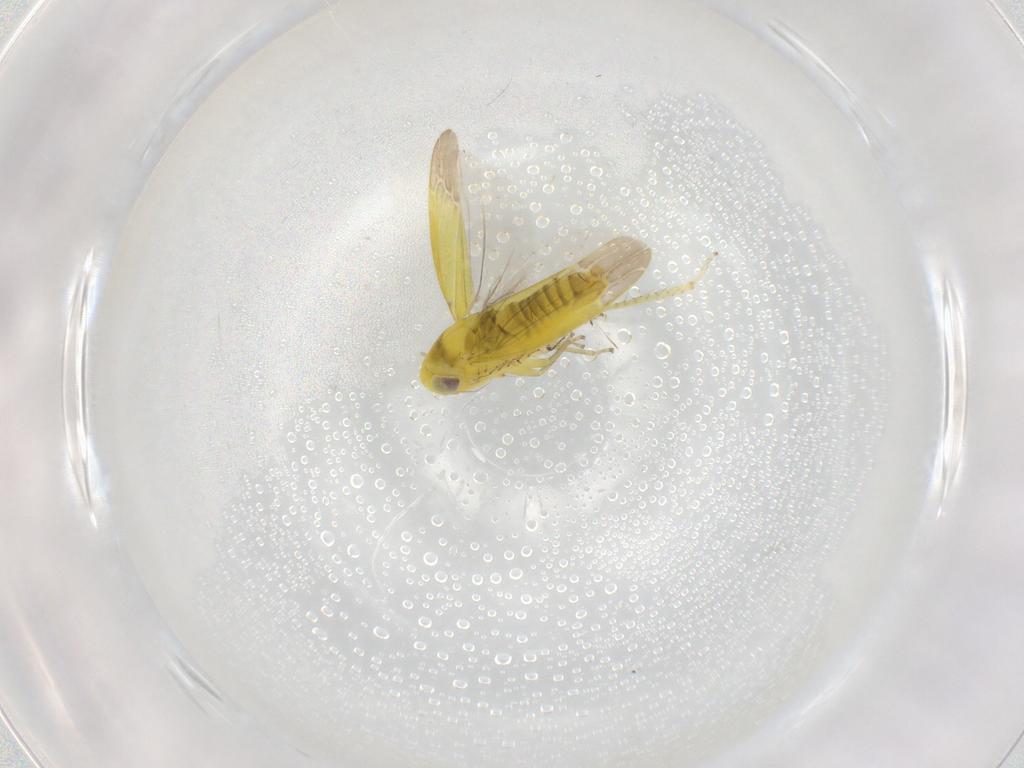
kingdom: Animalia
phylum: Arthropoda
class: Insecta
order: Hemiptera
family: Cicadellidae
